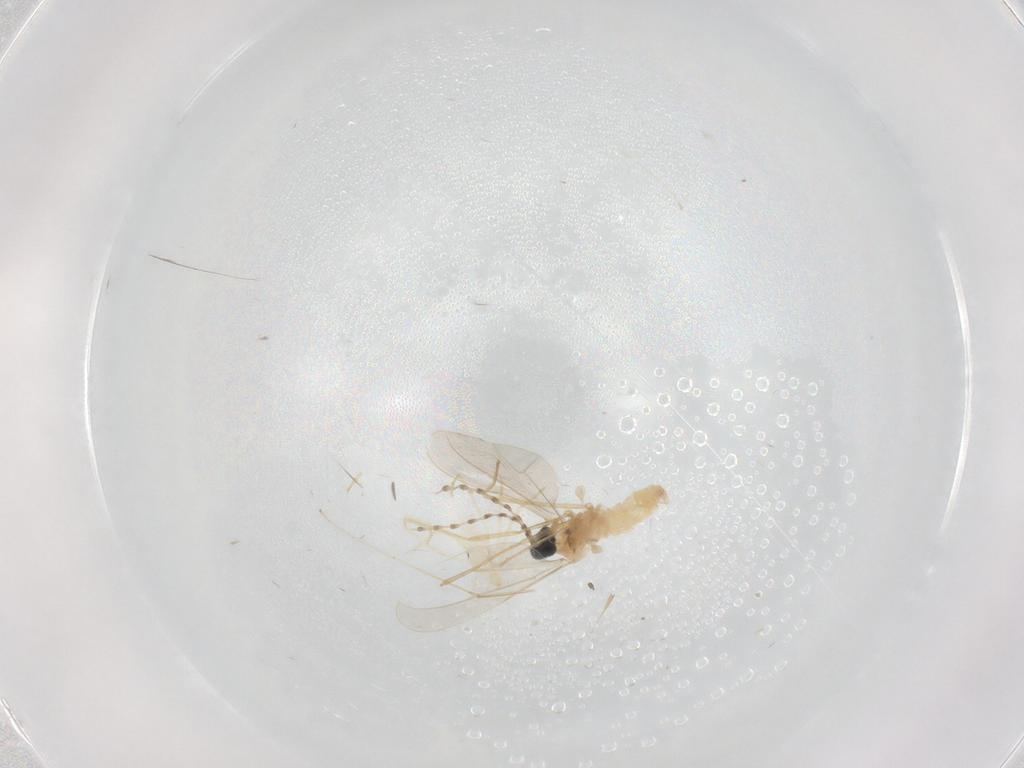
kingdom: Animalia
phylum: Arthropoda
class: Insecta
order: Diptera
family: Cecidomyiidae
